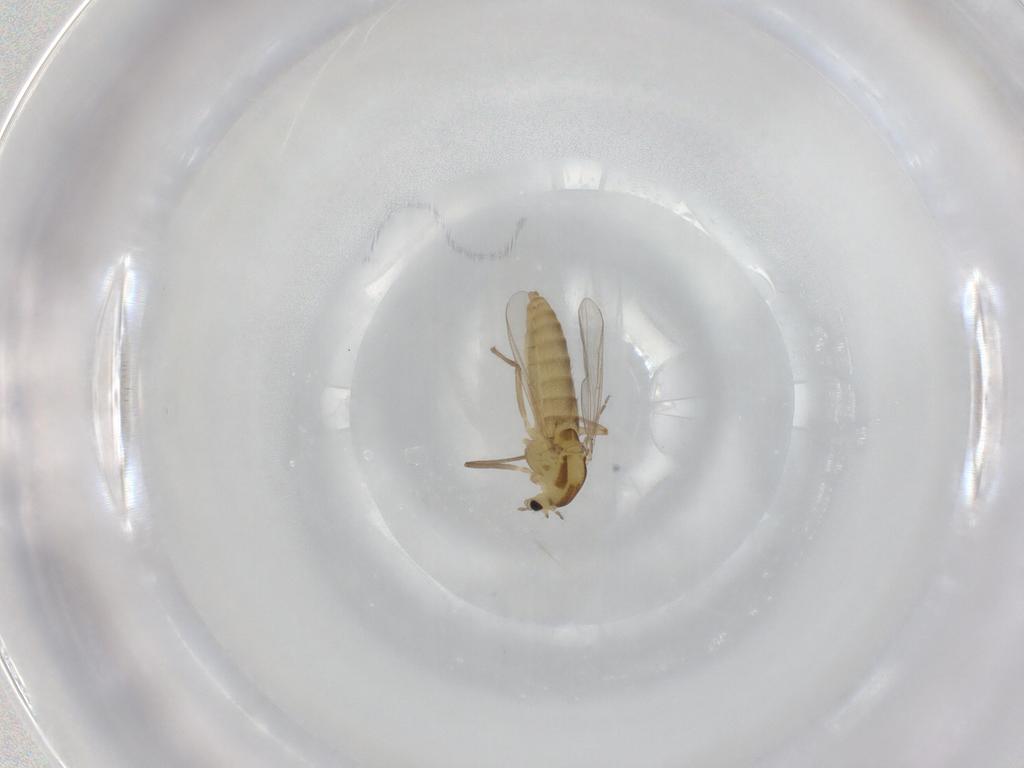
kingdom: Animalia
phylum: Arthropoda
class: Insecta
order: Diptera
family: Chironomidae
